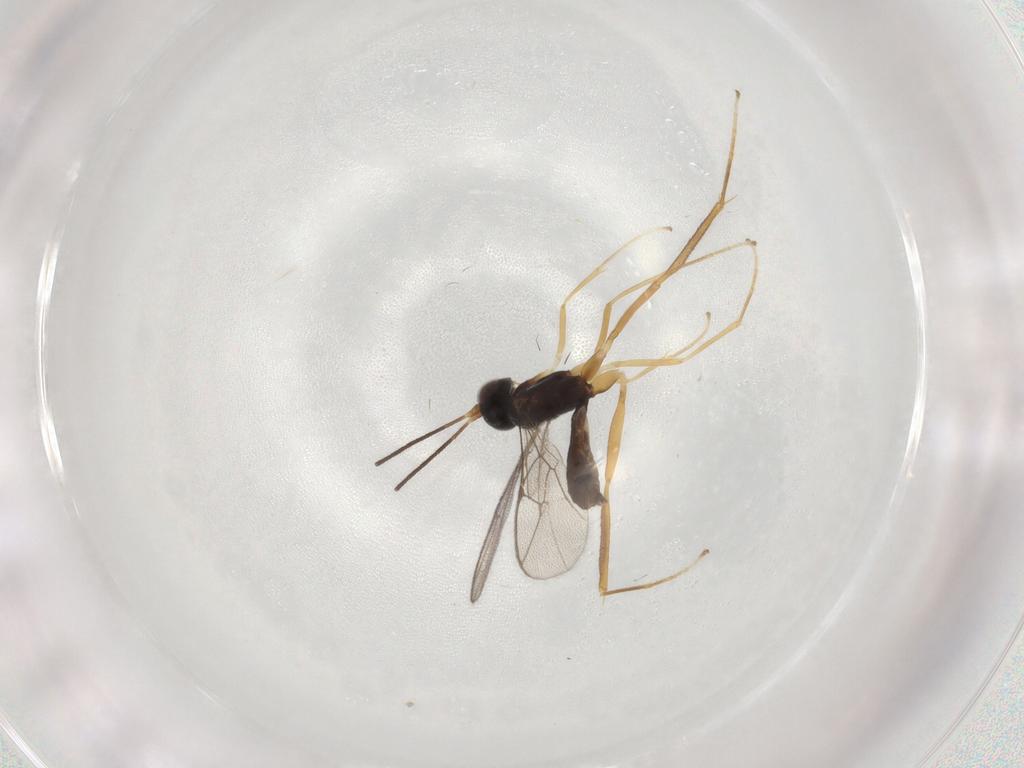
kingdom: Animalia
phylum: Arthropoda
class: Insecta
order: Hymenoptera
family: Ichneumonidae
